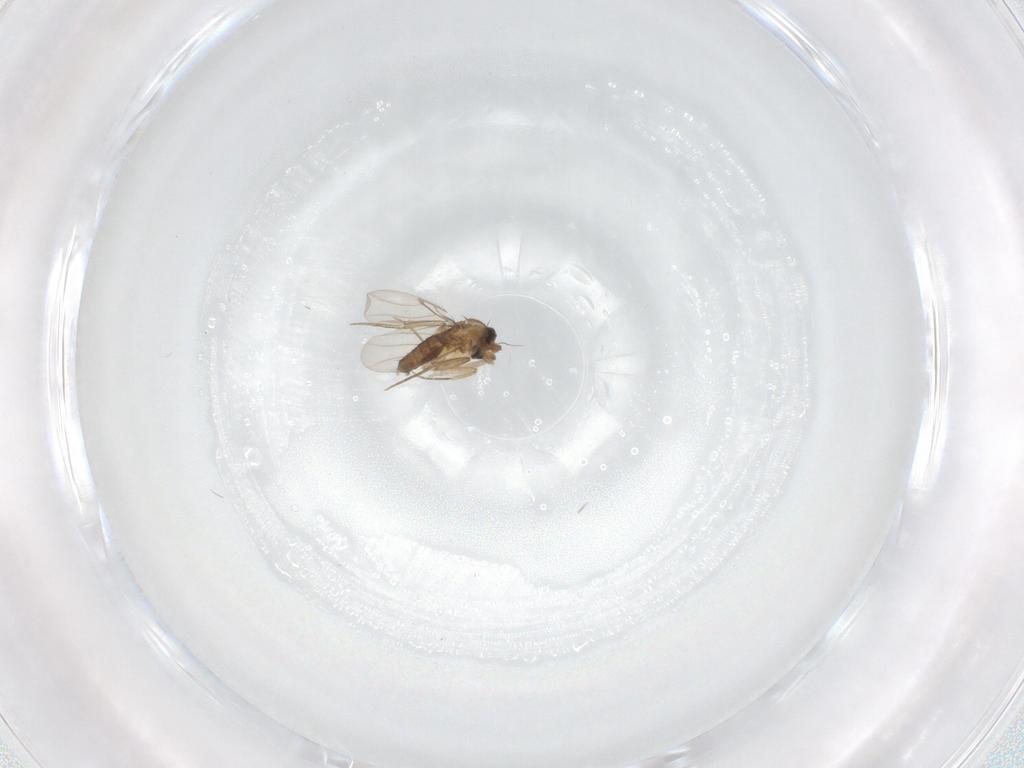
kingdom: Animalia
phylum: Arthropoda
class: Insecta
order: Diptera
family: Phoridae
